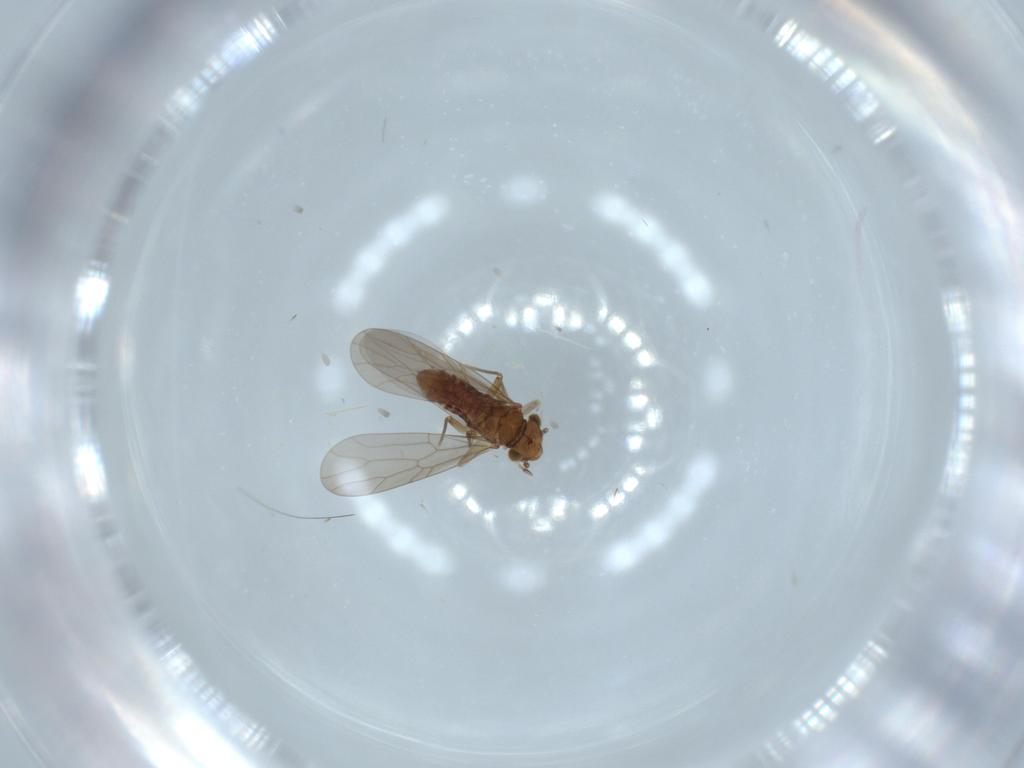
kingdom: Animalia
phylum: Arthropoda
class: Insecta
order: Psocodea
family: Lepidopsocidae
